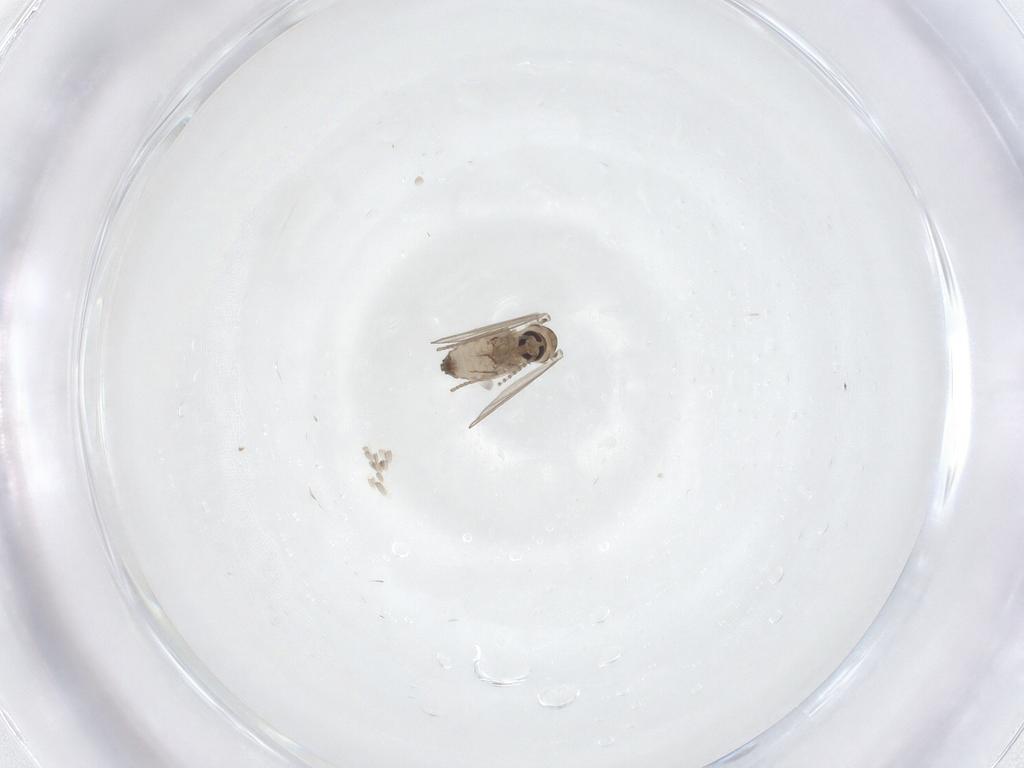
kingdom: Animalia
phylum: Arthropoda
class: Insecta
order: Diptera
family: Psychodidae
